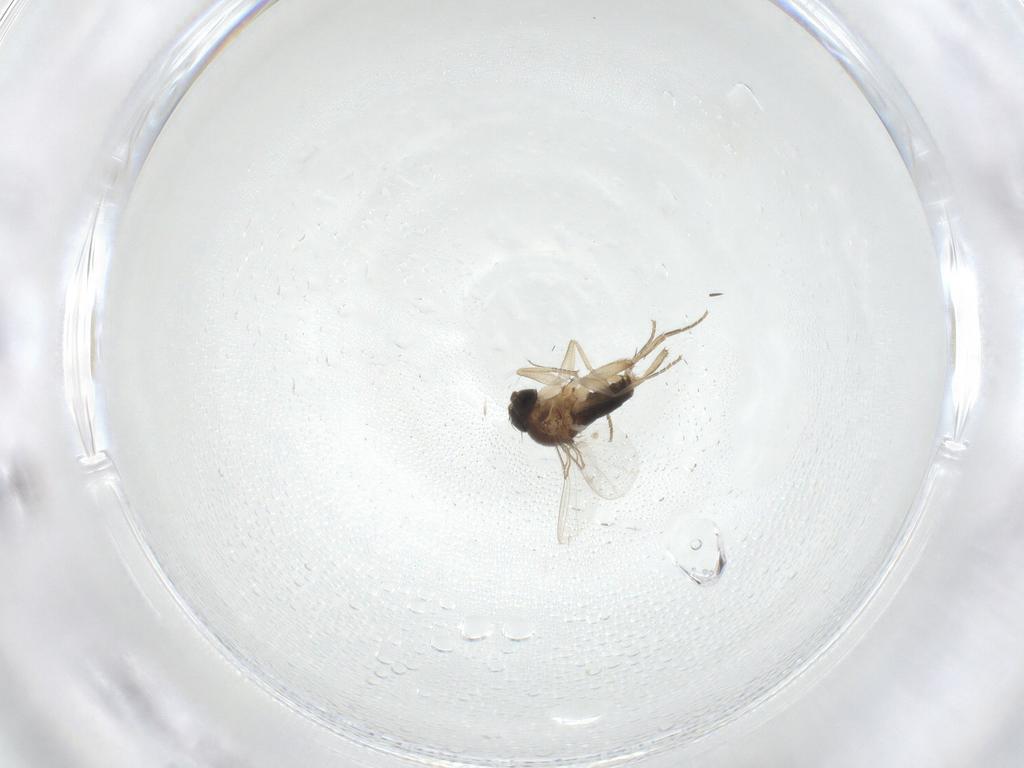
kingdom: Animalia
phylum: Arthropoda
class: Insecta
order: Diptera
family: Phoridae
